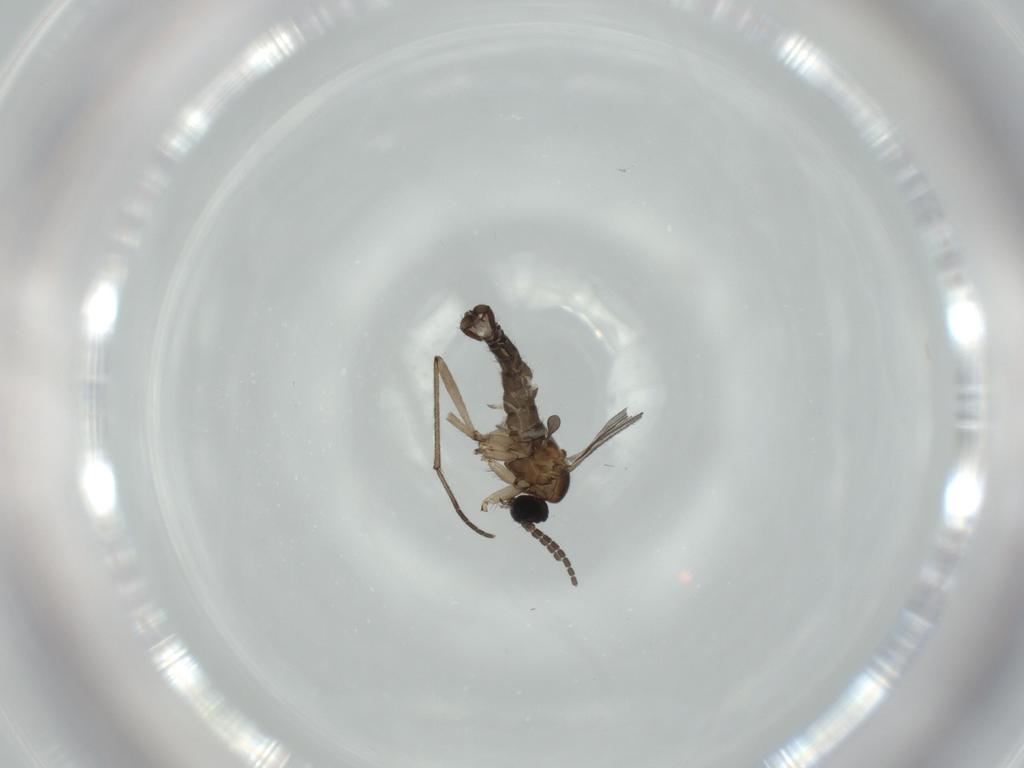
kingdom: Animalia
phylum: Arthropoda
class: Insecta
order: Diptera
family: Sciaridae
